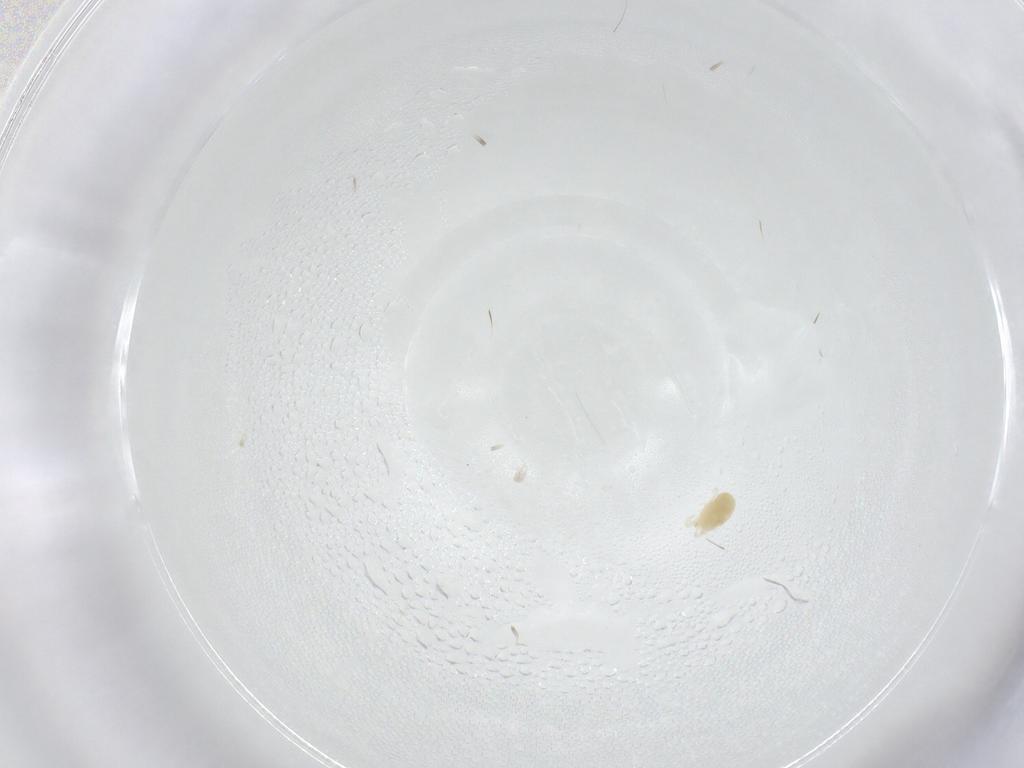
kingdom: Animalia
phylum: Arthropoda
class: Arachnida
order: Trombidiformes
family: Tetranychidae
